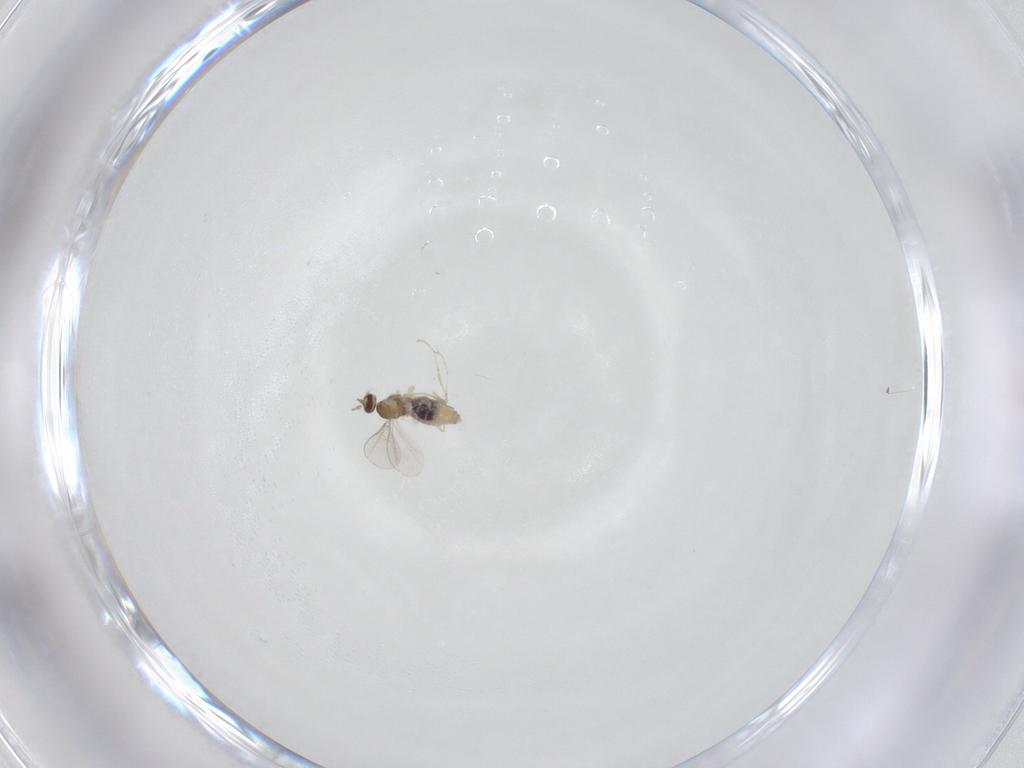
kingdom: Animalia
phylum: Arthropoda
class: Insecta
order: Diptera
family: Cecidomyiidae
